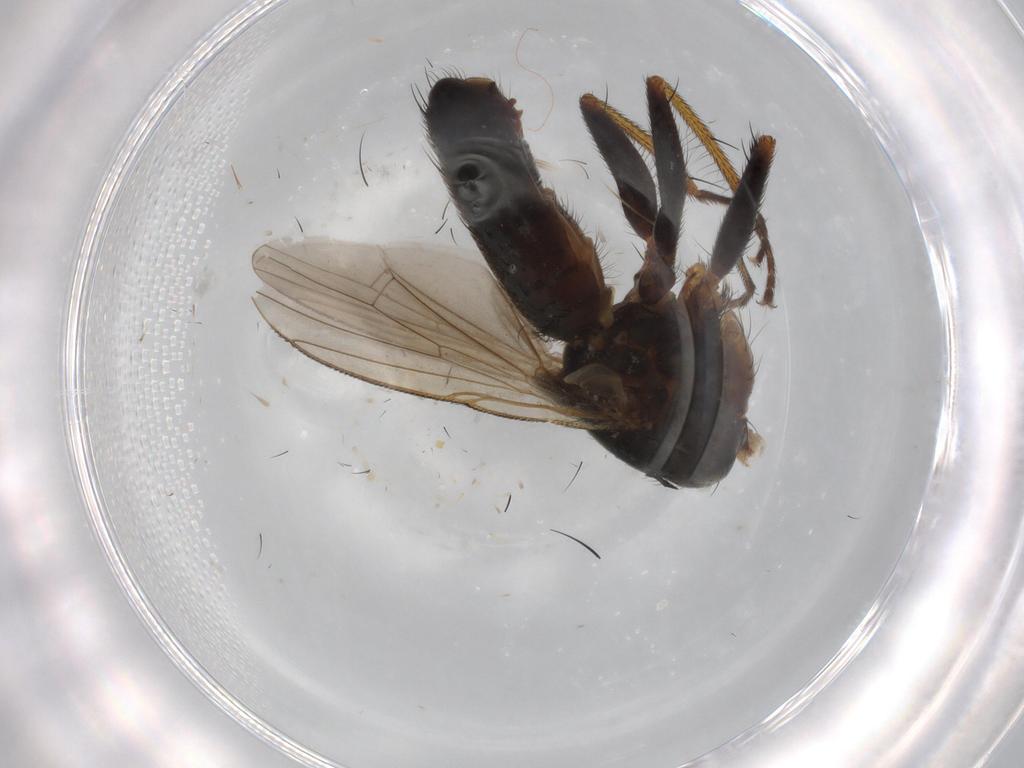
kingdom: Animalia
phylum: Arthropoda
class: Insecta
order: Diptera
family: Muscidae
